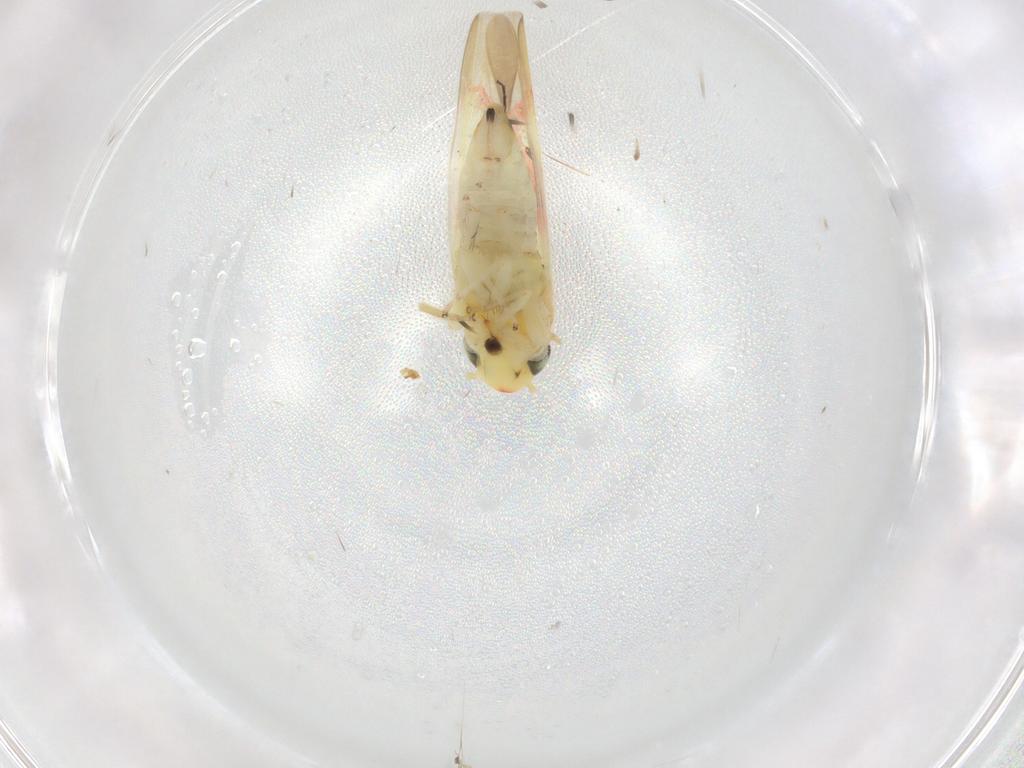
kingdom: Animalia
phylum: Arthropoda
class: Insecta
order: Hemiptera
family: Cicadellidae
